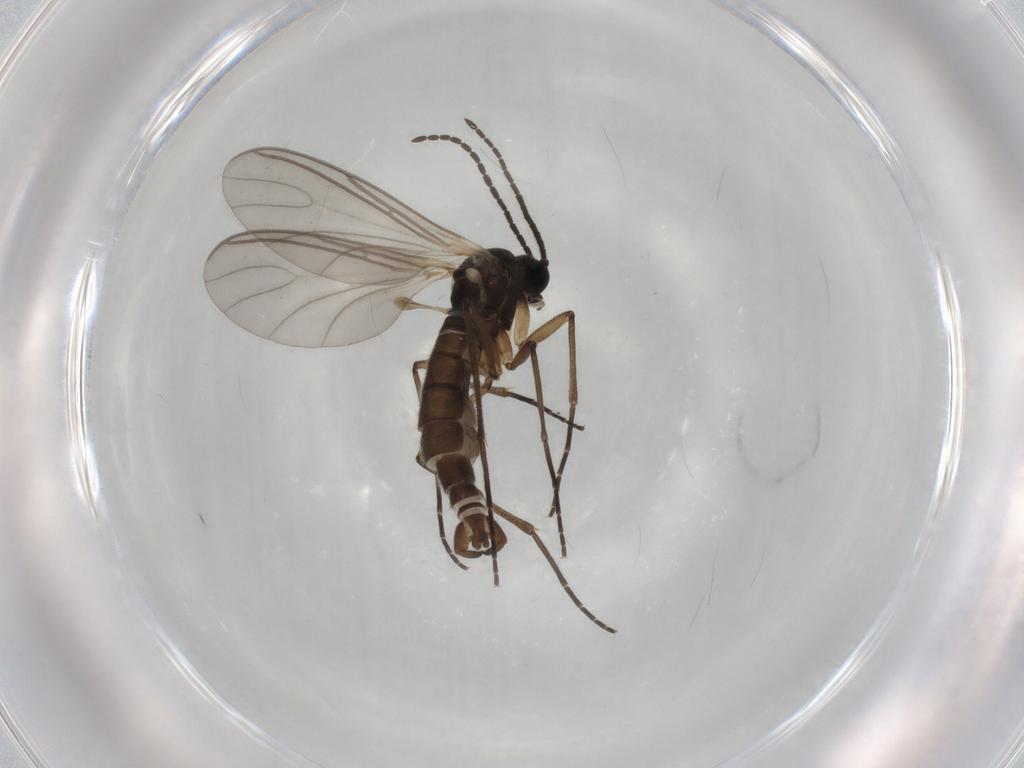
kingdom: Animalia
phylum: Arthropoda
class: Insecta
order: Diptera
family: Sciaridae
